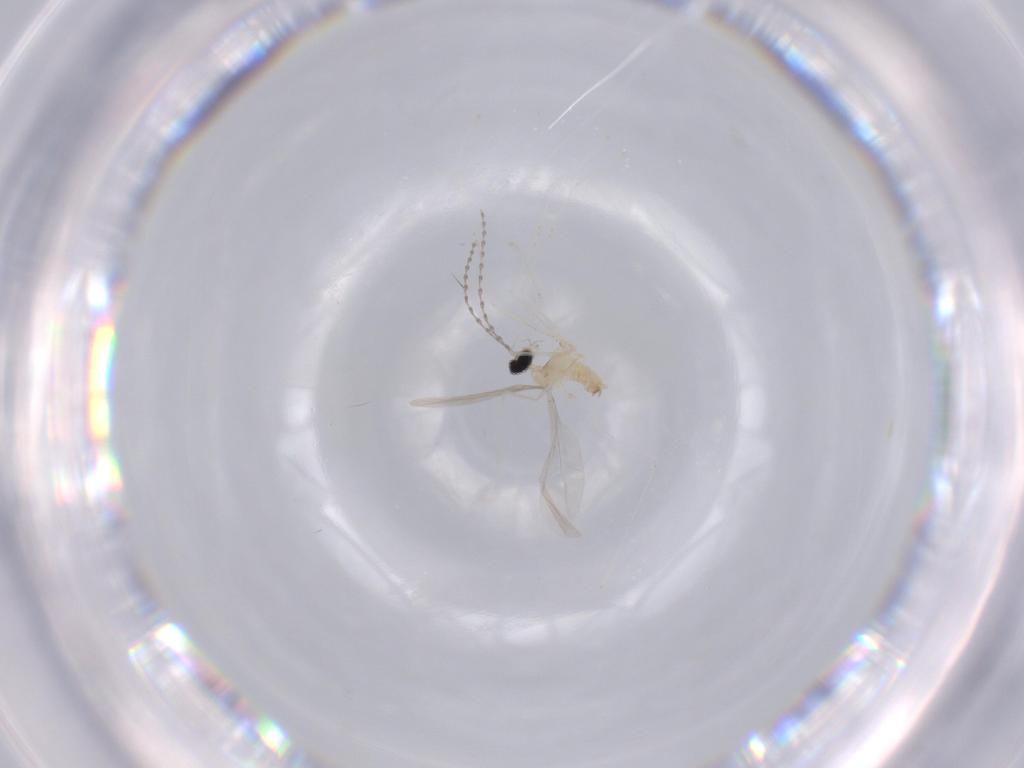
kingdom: Animalia
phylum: Arthropoda
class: Insecta
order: Diptera
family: Cecidomyiidae
